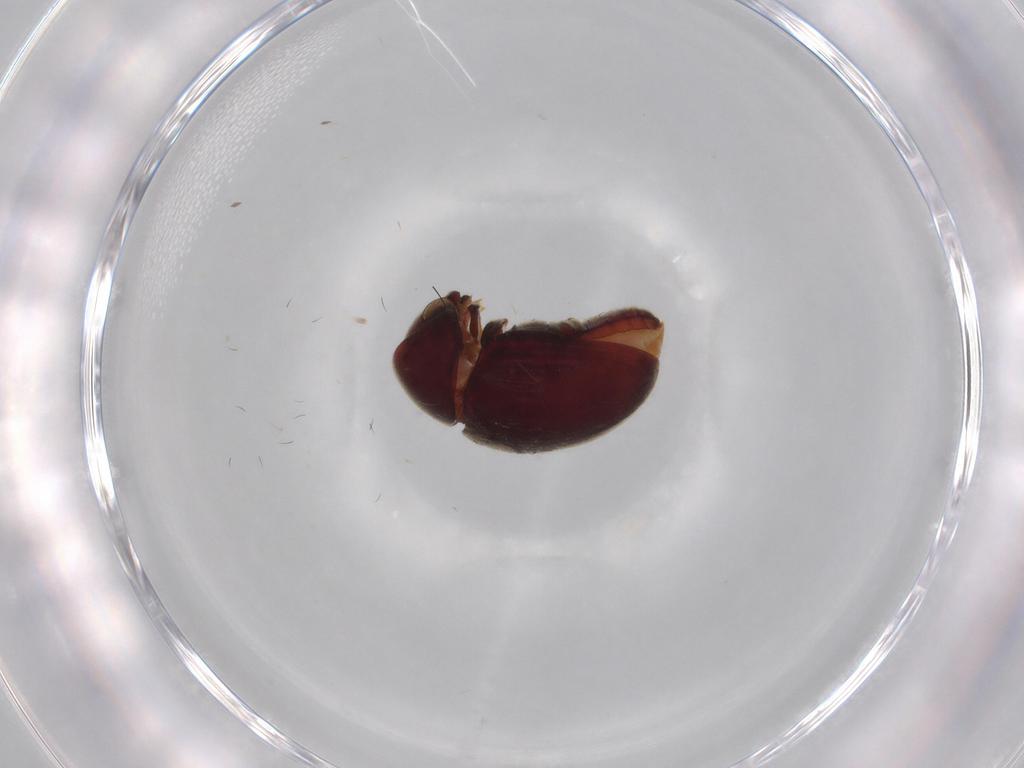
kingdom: Animalia
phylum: Arthropoda
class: Insecta
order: Coleoptera
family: Ptinidae
